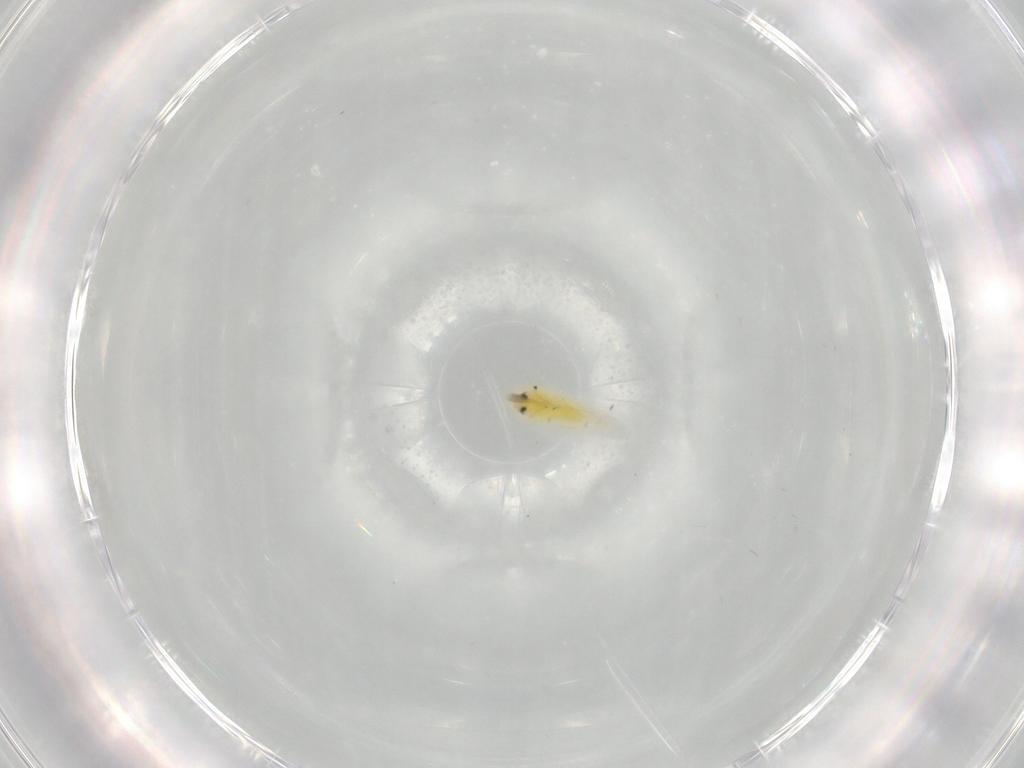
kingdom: Animalia
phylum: Arthropoda
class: Insecta
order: Hemiptera
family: Aleyrodidae
